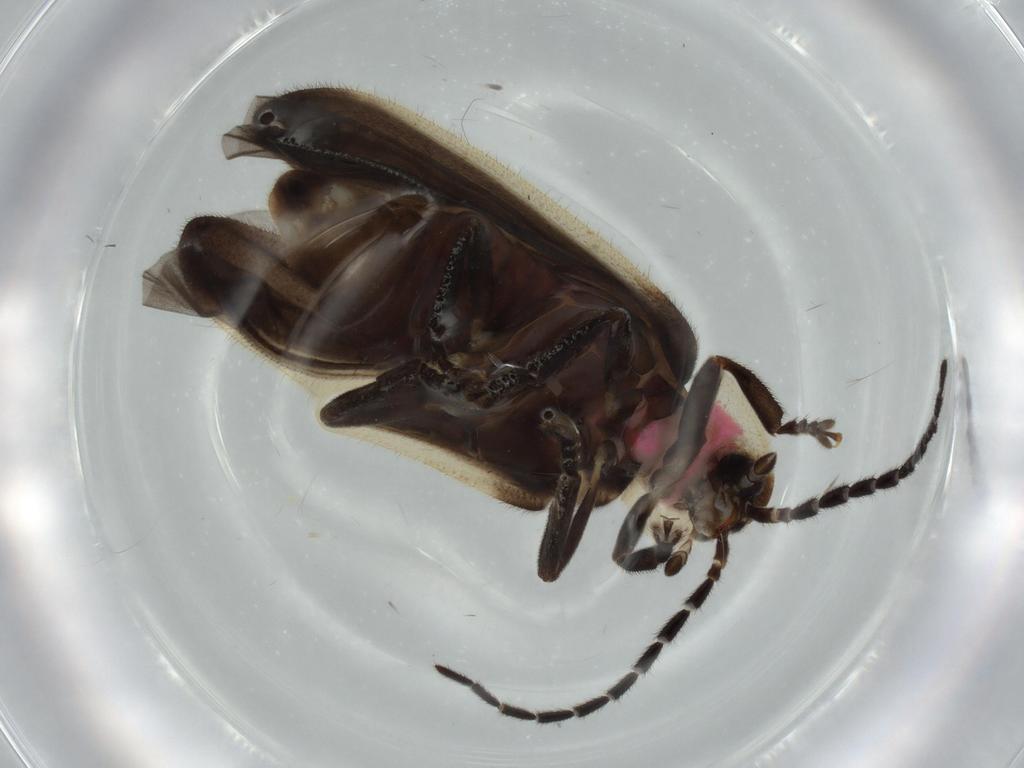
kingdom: Animalia
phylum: Arthropoda
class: Insecta
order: Coleoptera
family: Lampyridae
